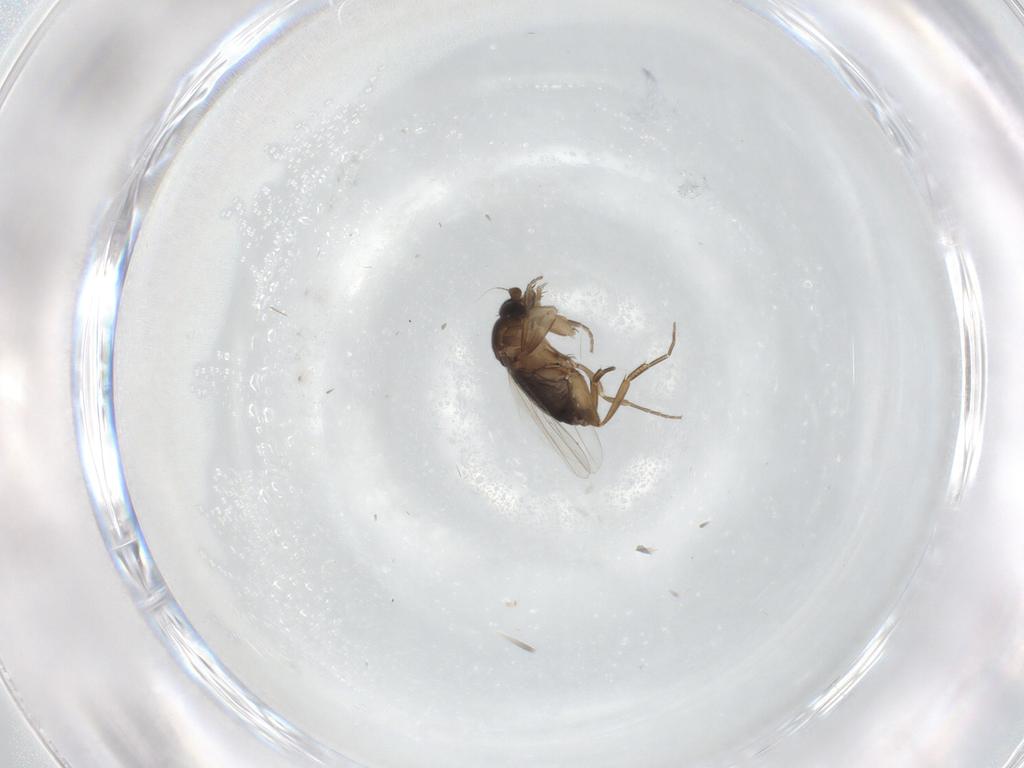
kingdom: Animalia
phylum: Arthropoda
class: Insecta
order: Diptera
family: Phoridae
